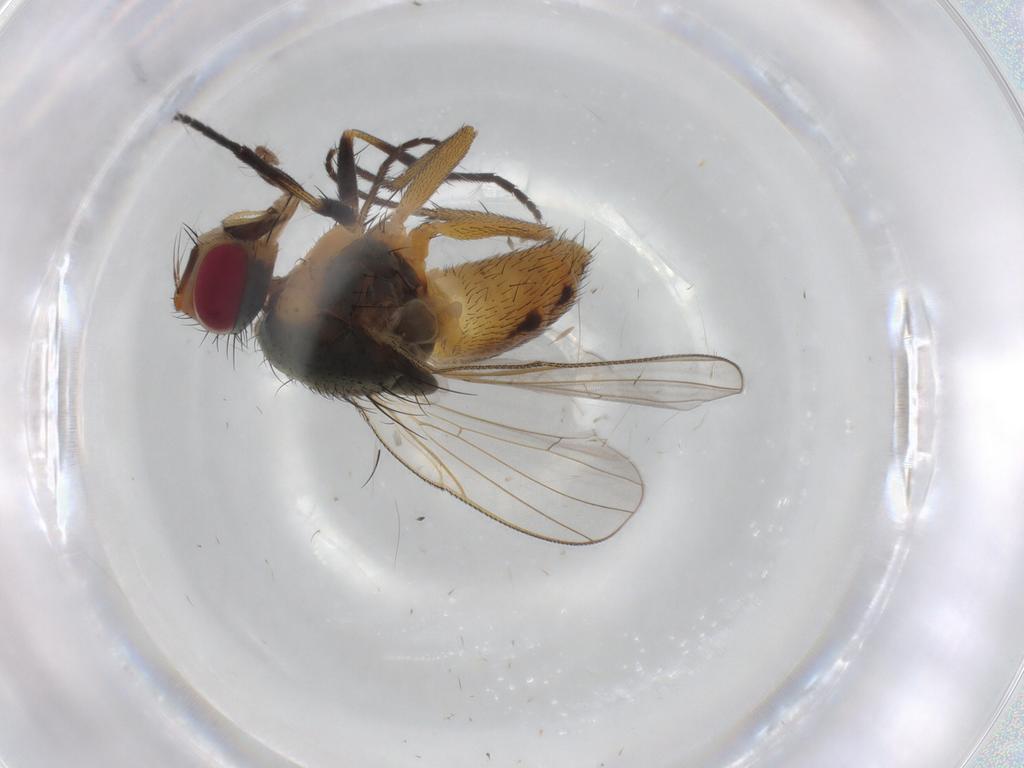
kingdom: Animalia
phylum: Arthropoda
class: Insecta
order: Diptera
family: Muscidae
